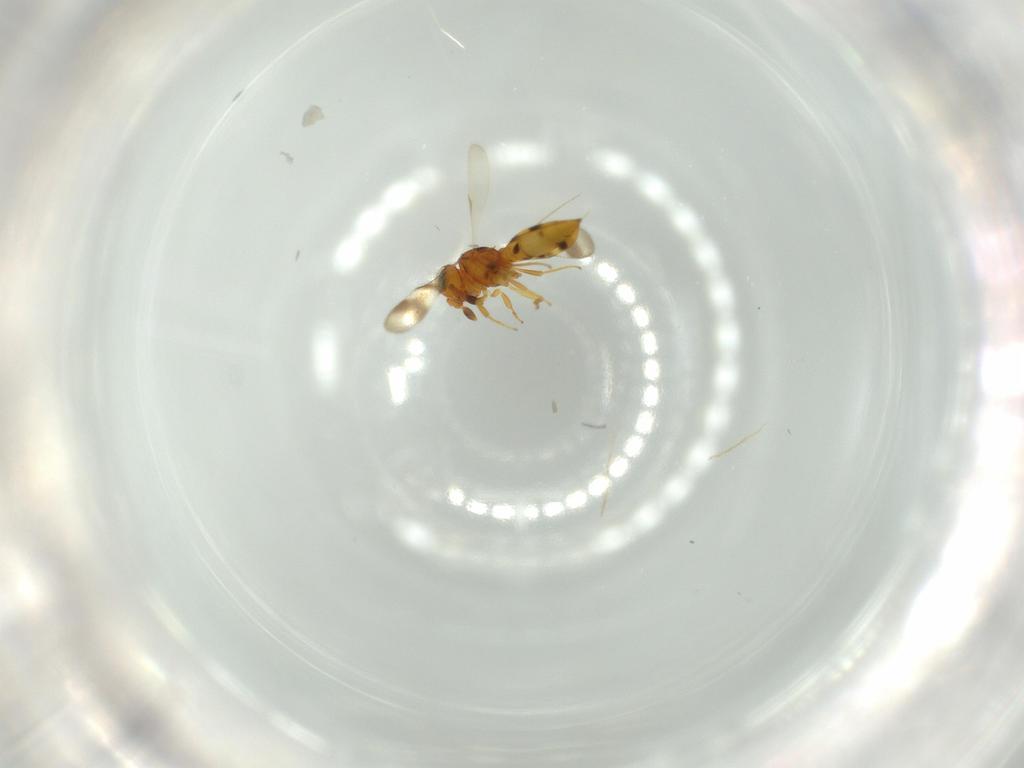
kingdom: Animalia
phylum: Arthropoda
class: Insecta
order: Hymenoptera
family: Scelionidae
